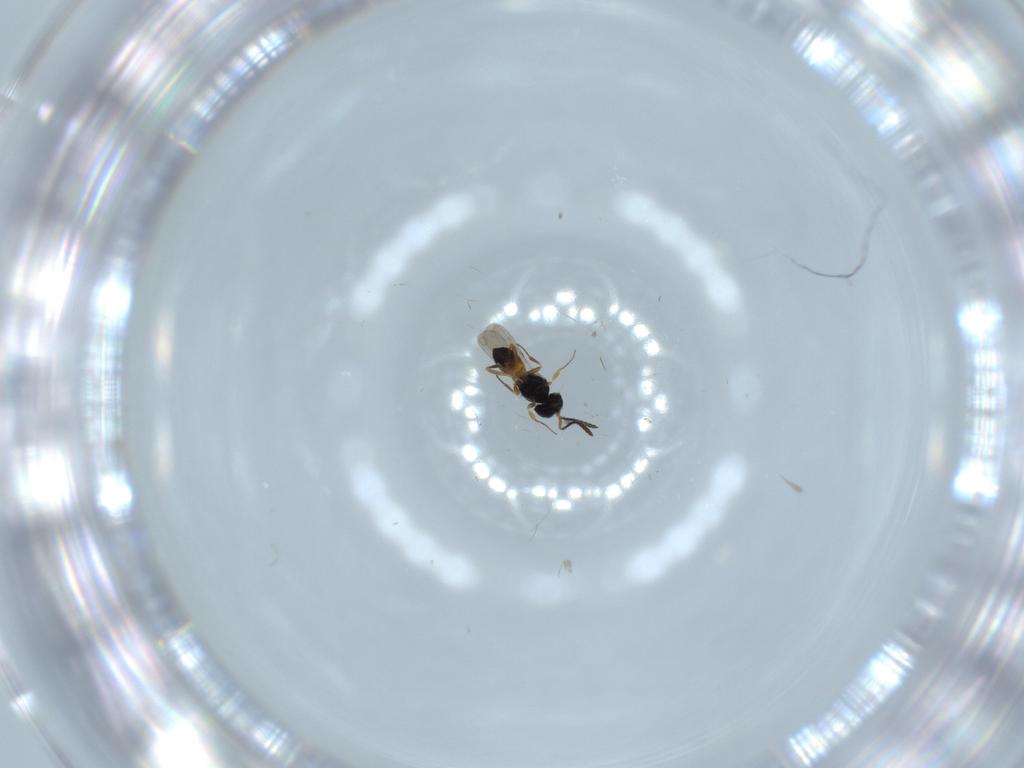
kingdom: Animalia
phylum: Arthropoda
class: Insecta
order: Hymenoptera
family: Scelionidae
